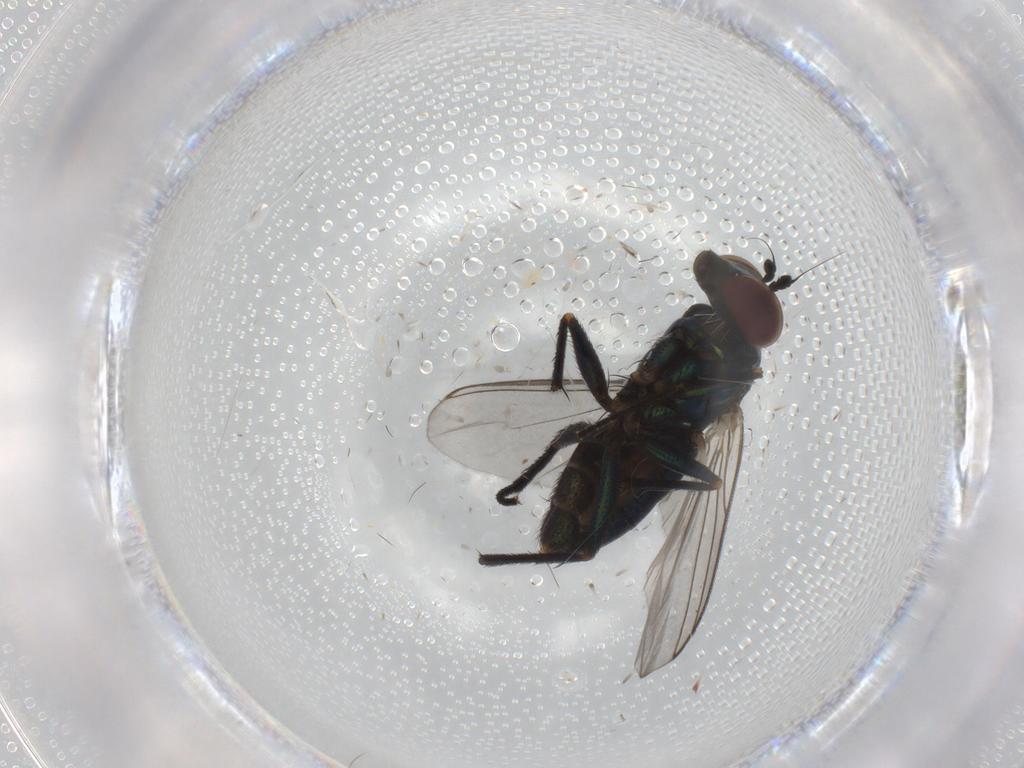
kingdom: Animalia
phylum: Arthropoda
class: Insecta
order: Diptera
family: Dolichopodidae
